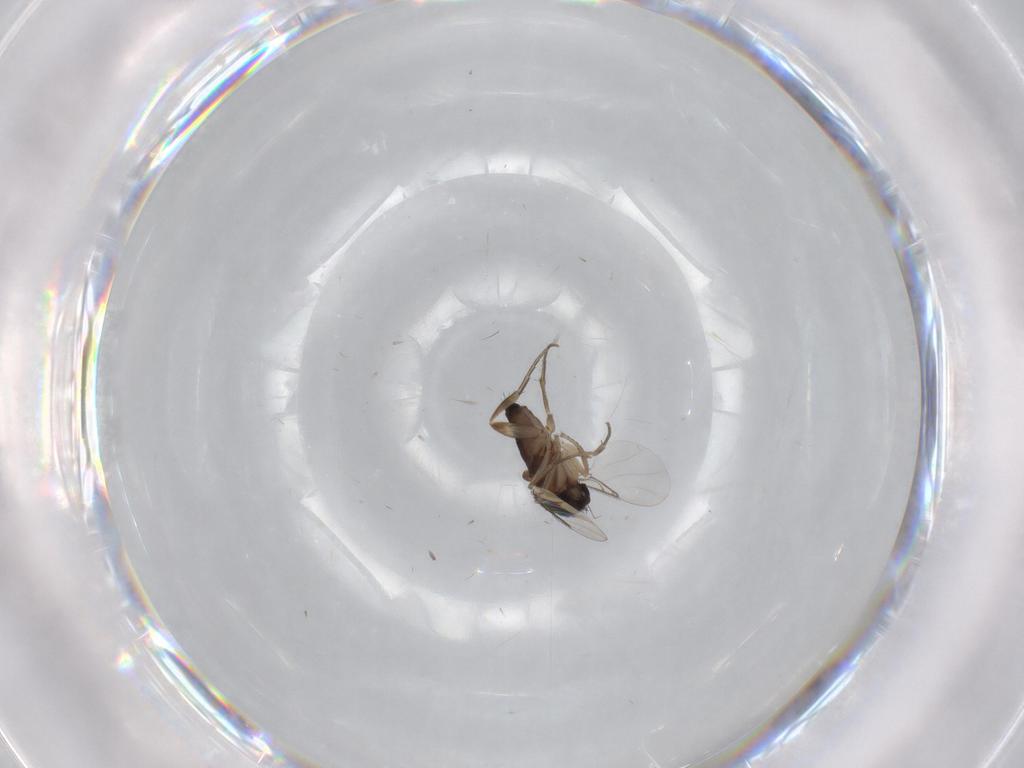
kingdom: Animalia
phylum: Arthropoda
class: Insecta
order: Diptera
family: Phoridae
